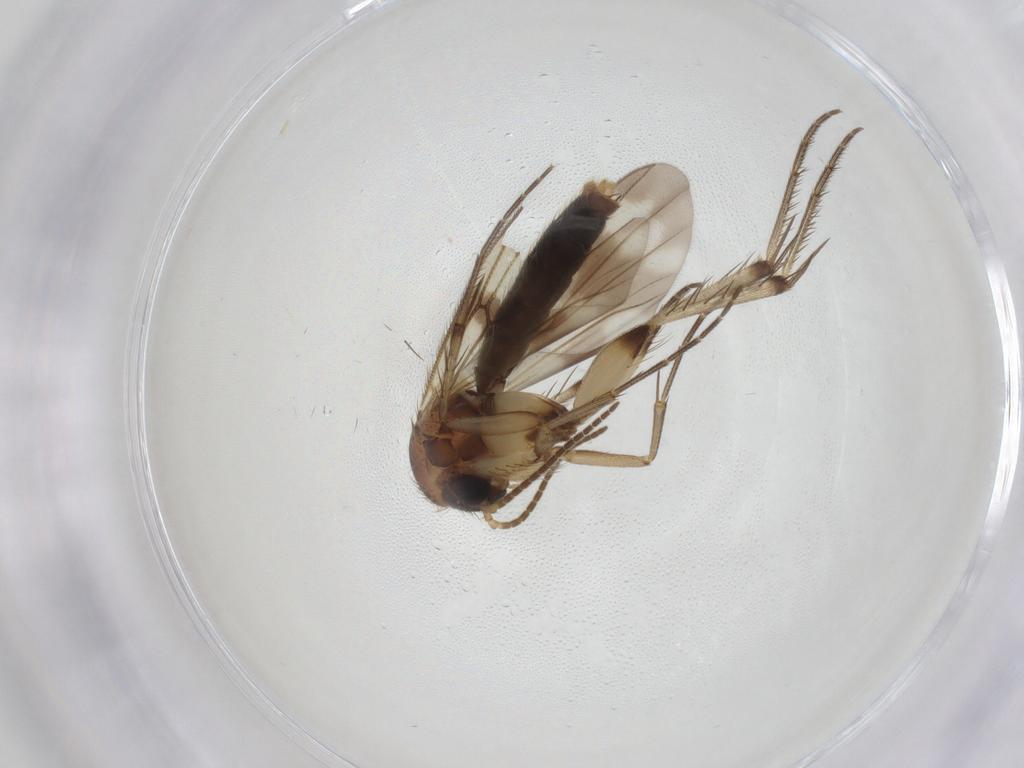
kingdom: Animalia
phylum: Arthropoda
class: Insecta
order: Diptera
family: Mycetophilidae
